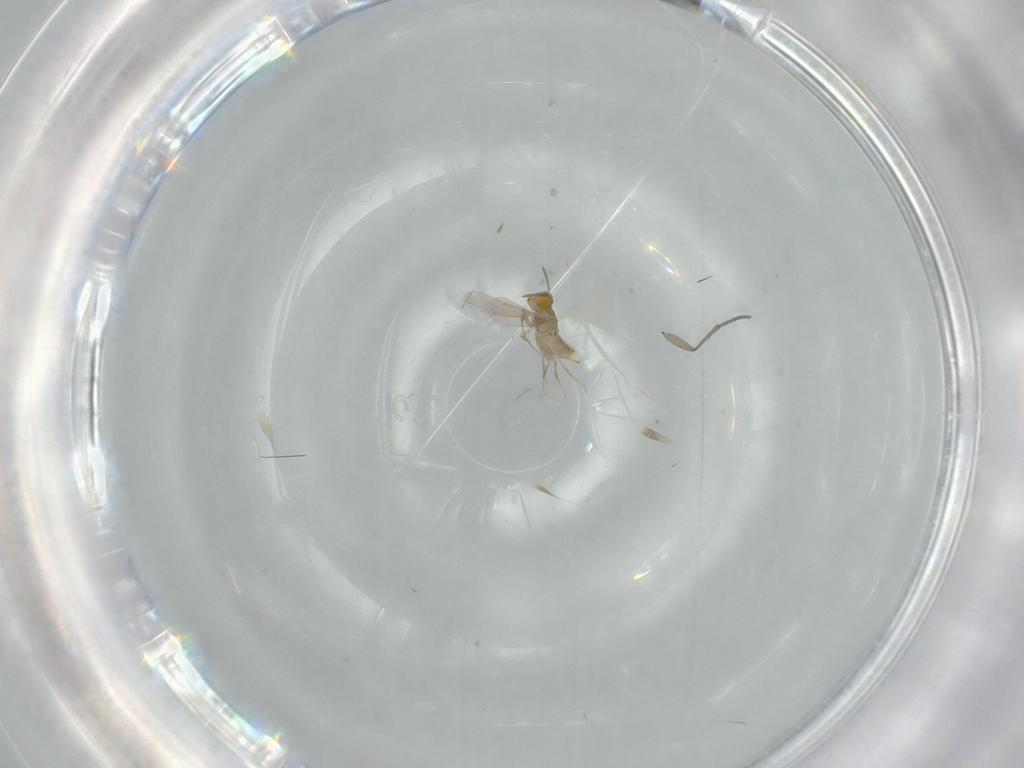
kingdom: Animalia
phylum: Arthropoda
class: Insecta
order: Hymenoptera
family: Aphelinidae
